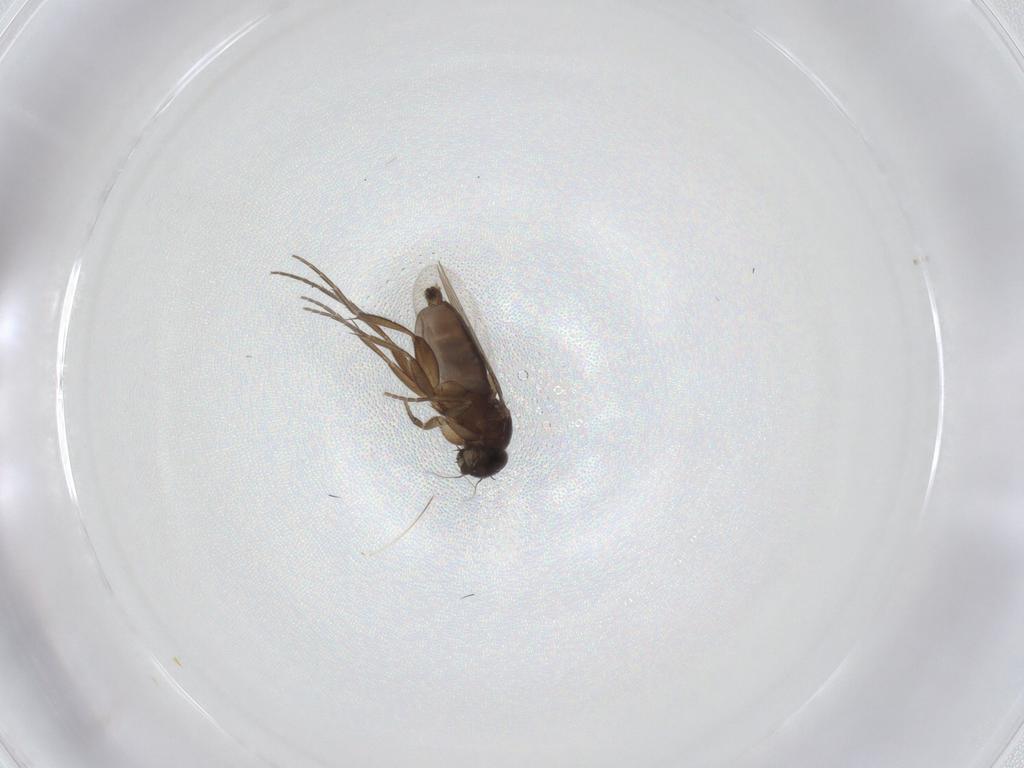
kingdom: Animalia
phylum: Arthropoda
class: Insecta
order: Diptera
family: Phoridae
